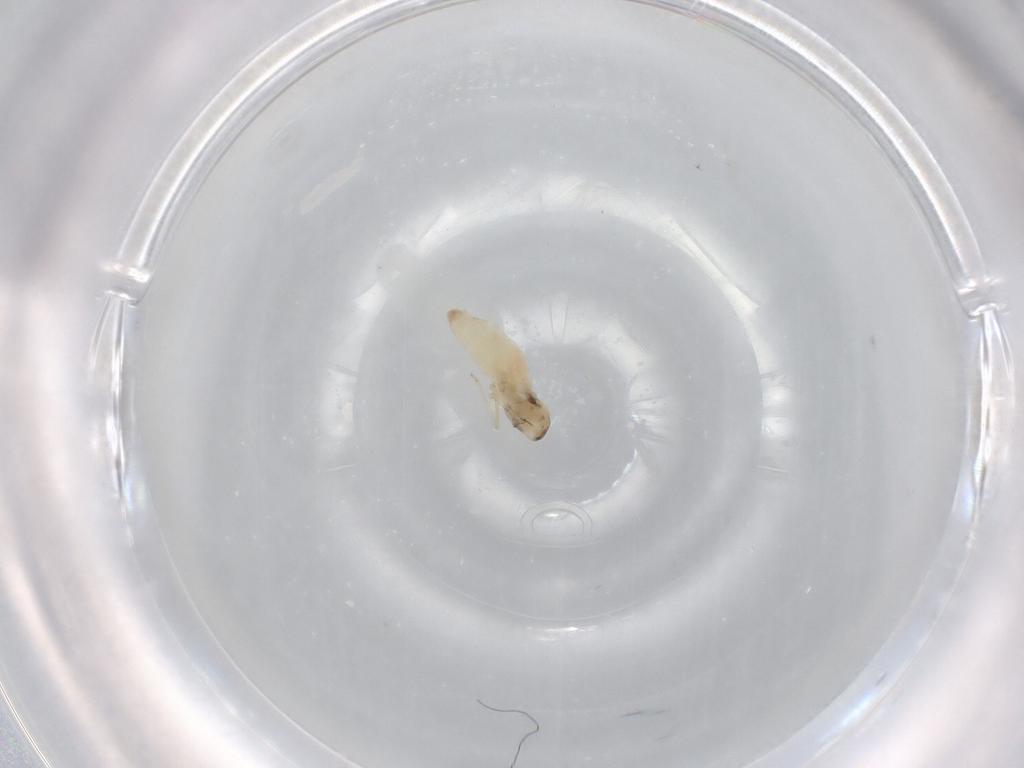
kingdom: Animalia
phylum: Arthropoda
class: Insecta
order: Diptera
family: Cecidomyiidae
